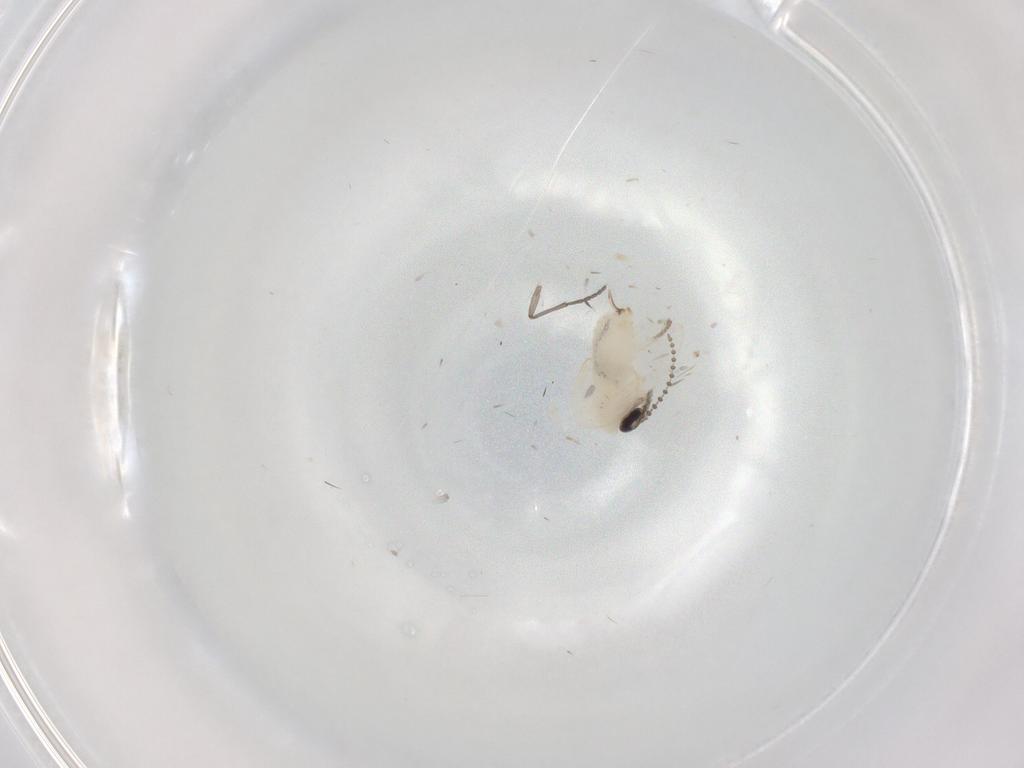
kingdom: Animalia
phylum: Arthropoda
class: Insecta
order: Diptera
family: Psychodidae
